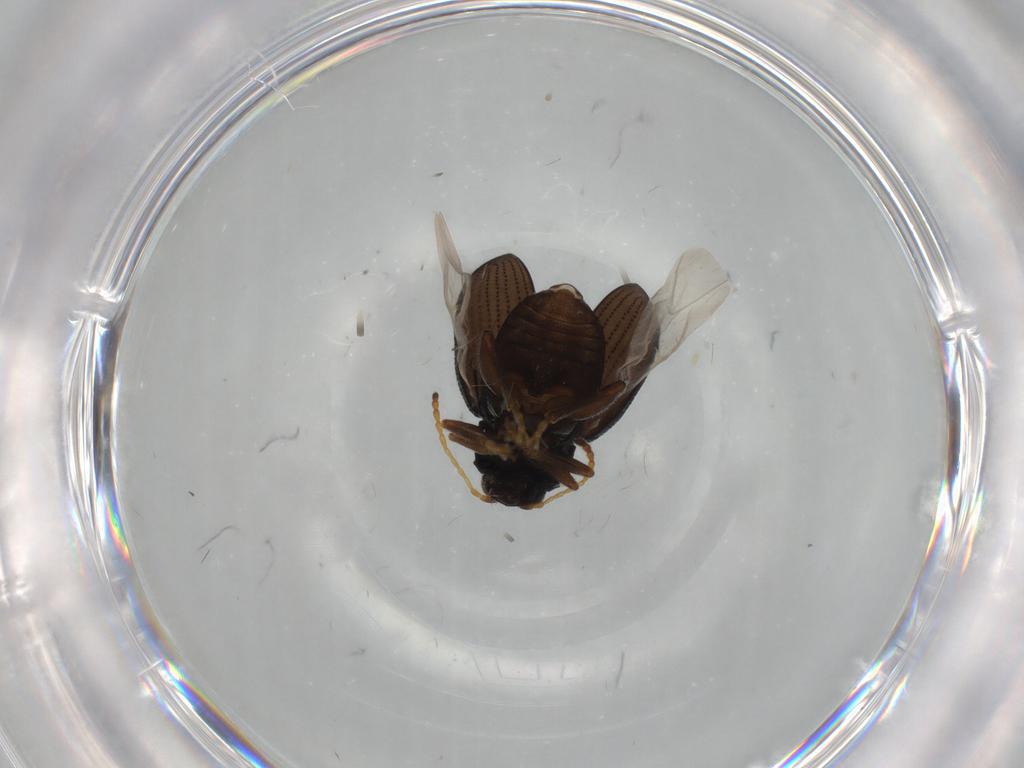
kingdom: Animalia
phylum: Arthropoda
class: Insecta
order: Coleoptera
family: Chrysomelidae
